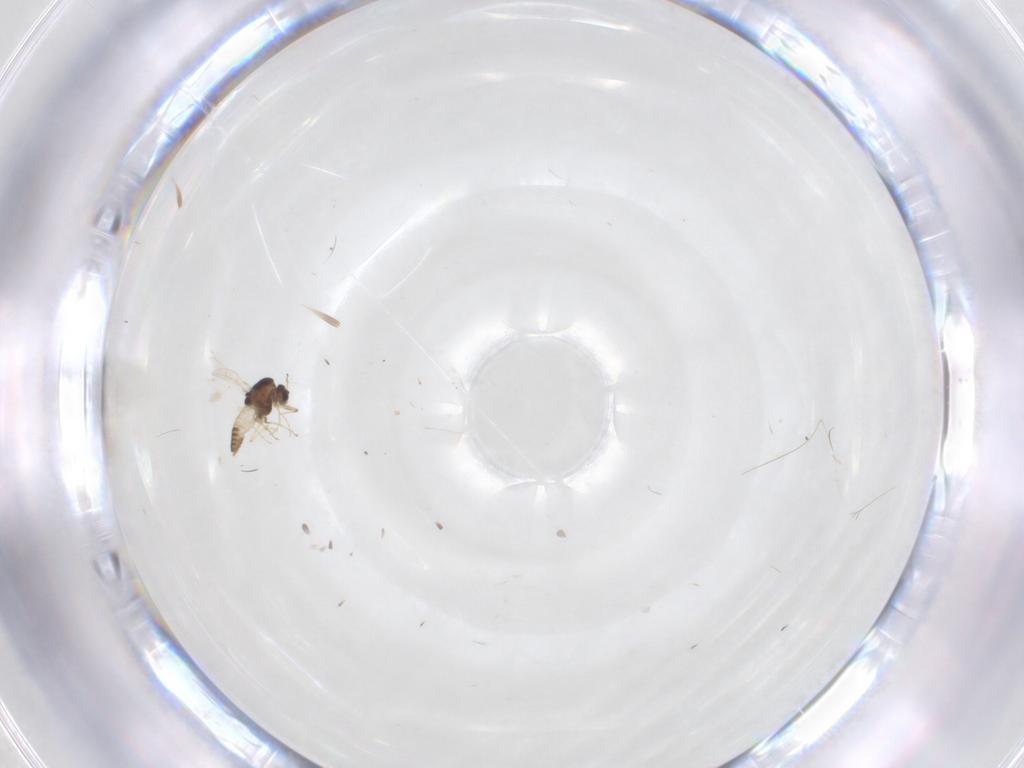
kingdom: Animalia
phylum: Arthropoda
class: Insecta
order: Diptera
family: Chironomidae
